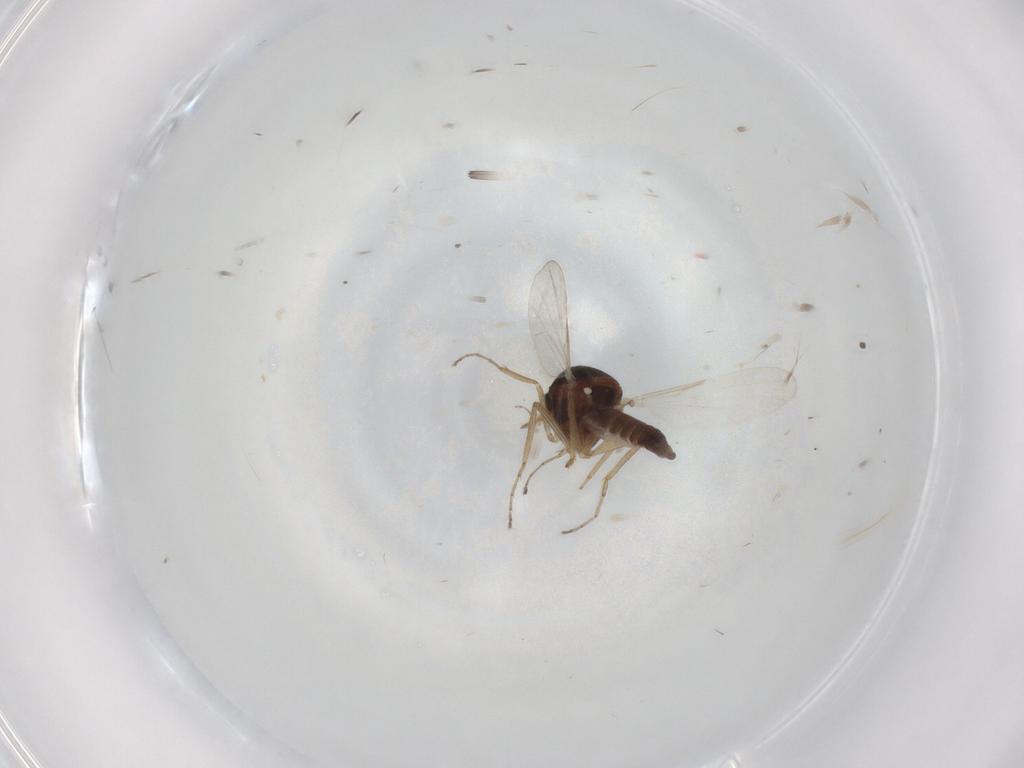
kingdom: Animalia
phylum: Arthropoda
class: Insecta
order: Diptera
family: Ceratopogonidae
